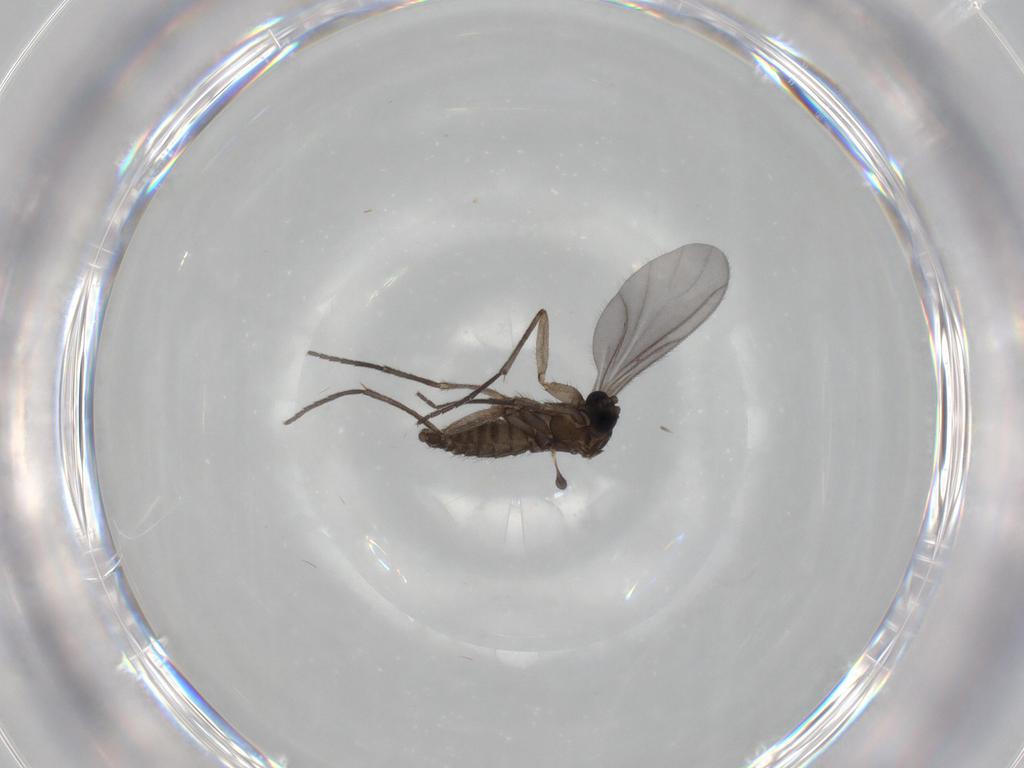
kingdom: Animalia
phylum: Arthropoda
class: Insecta
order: Diptera
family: Sciaridae
